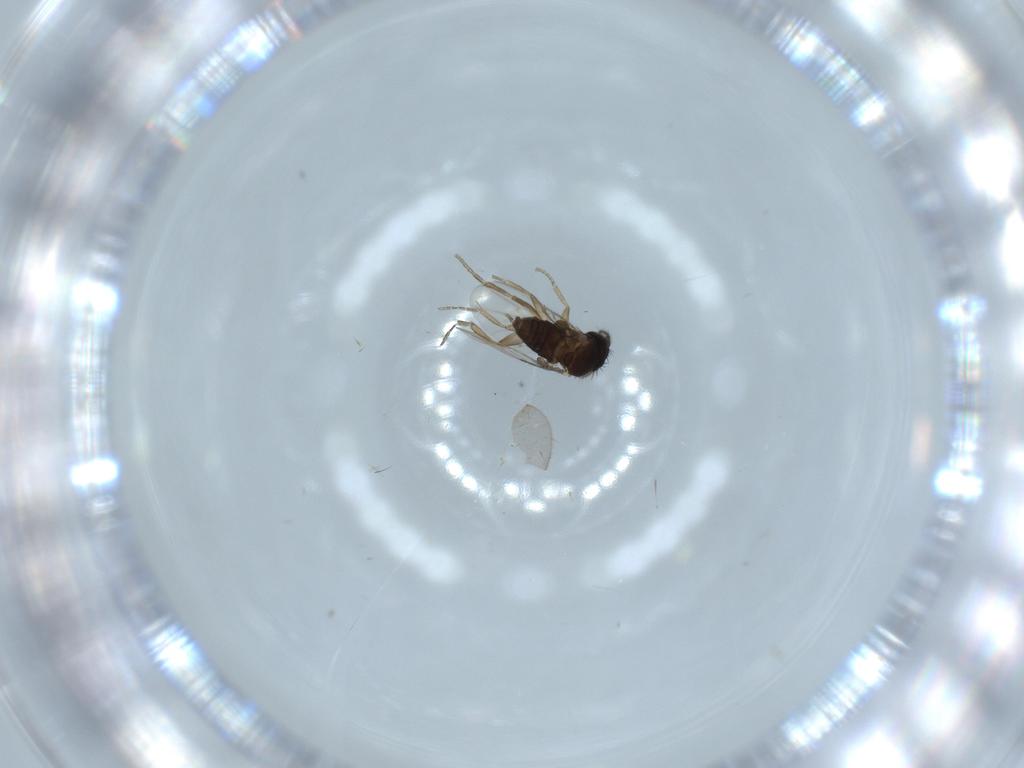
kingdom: Animalia
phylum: Arthropoda
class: Insecta
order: Diptera
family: Phoridae
